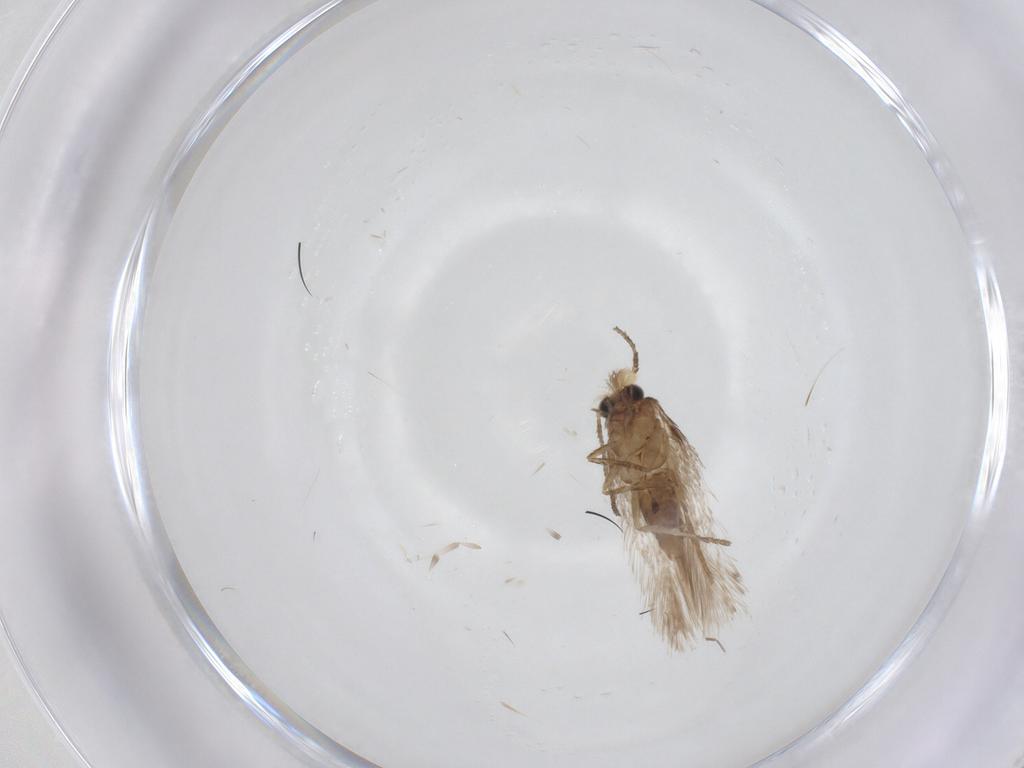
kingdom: Animalia
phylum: Arthropoda
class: Insecta
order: Lepidoptera
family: Nepticulidae
